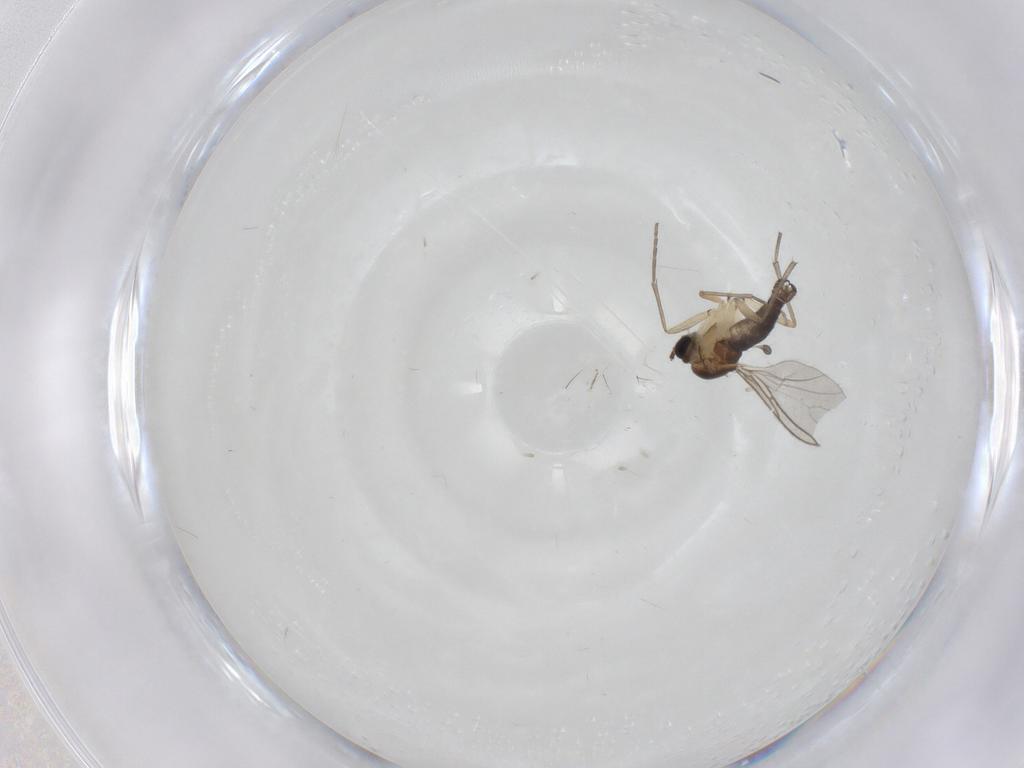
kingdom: Animalia
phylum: Arthropoda
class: Insecta
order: Diptera
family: Sciaridae
